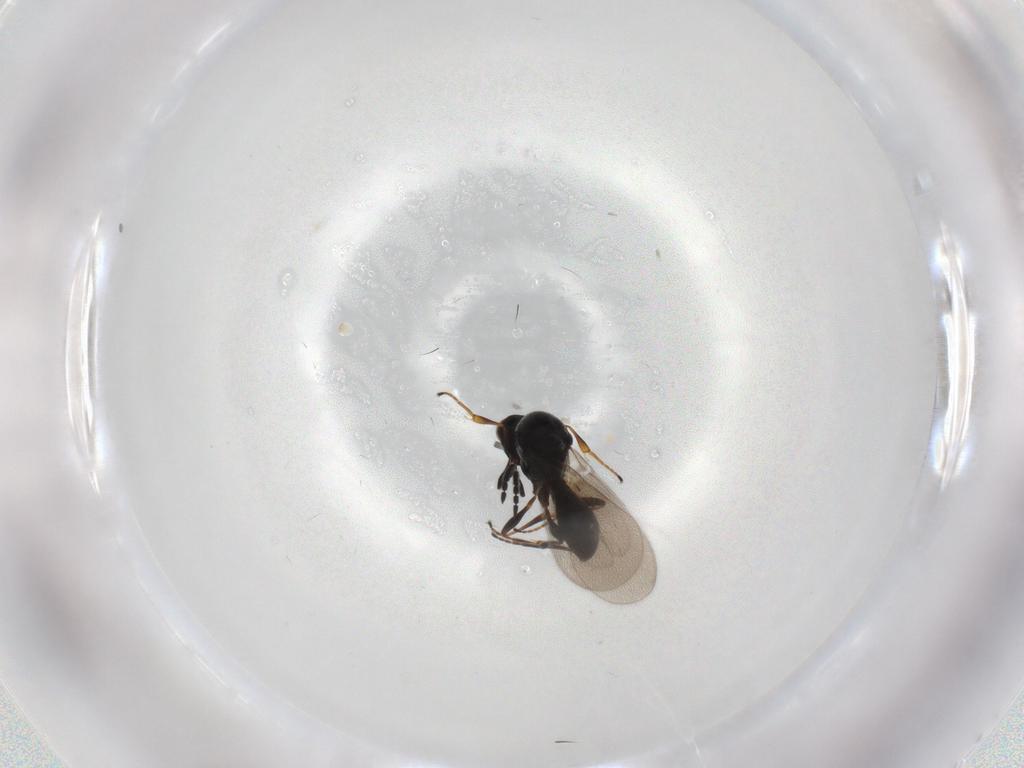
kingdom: Animalia
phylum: Arthropoda
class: Insecta
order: Hymenoptera
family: Platygastridae
